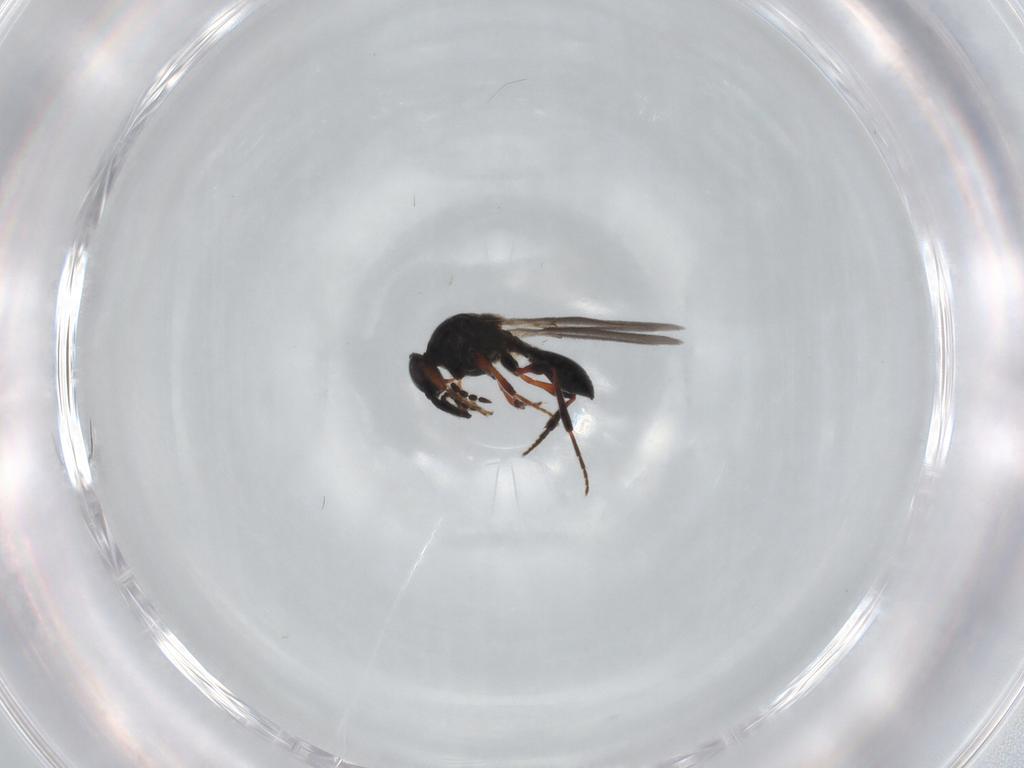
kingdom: Animalia
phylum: Arthropoda
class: Insecta
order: Hymenoptera
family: Platygastridae
